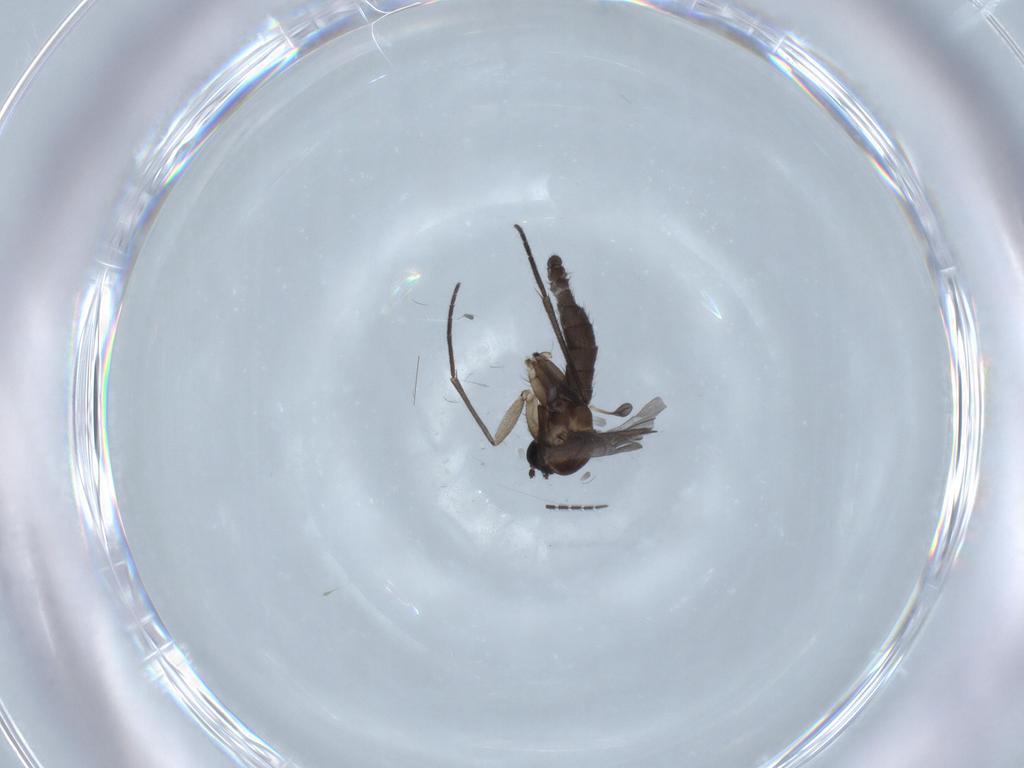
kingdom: Animalia
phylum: Arthropoda
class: Insecta
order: Diptera
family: Sciaridae
